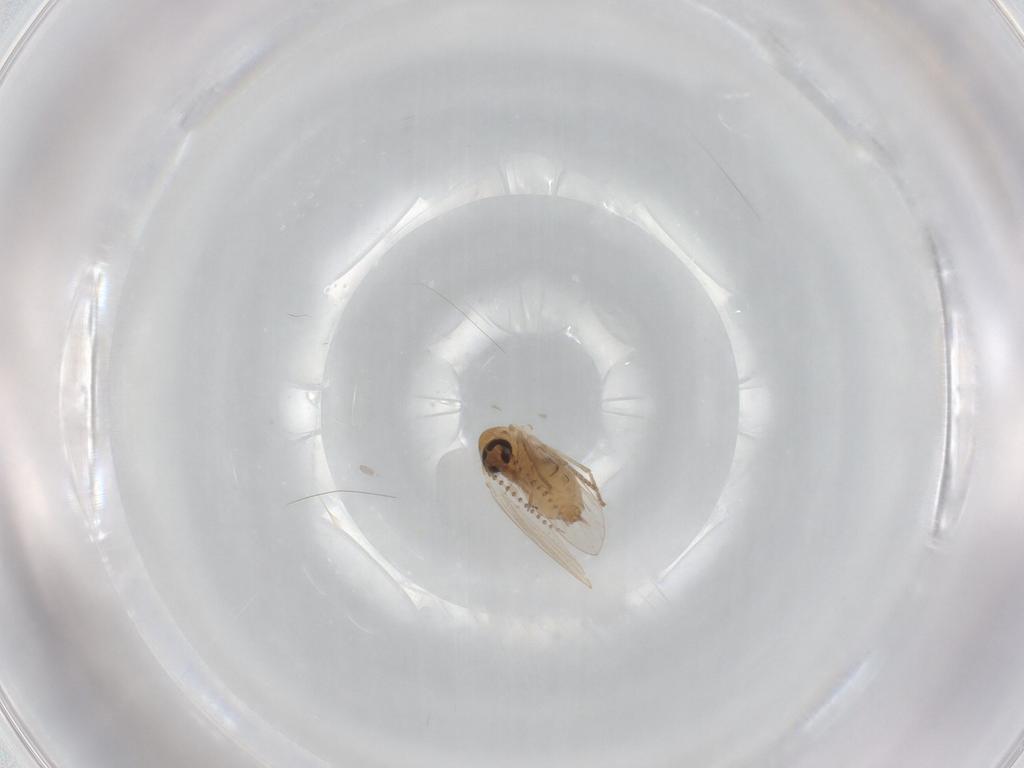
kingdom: Animalia
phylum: Arthropoda
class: Insecta
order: Diptera
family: Psychodidae
